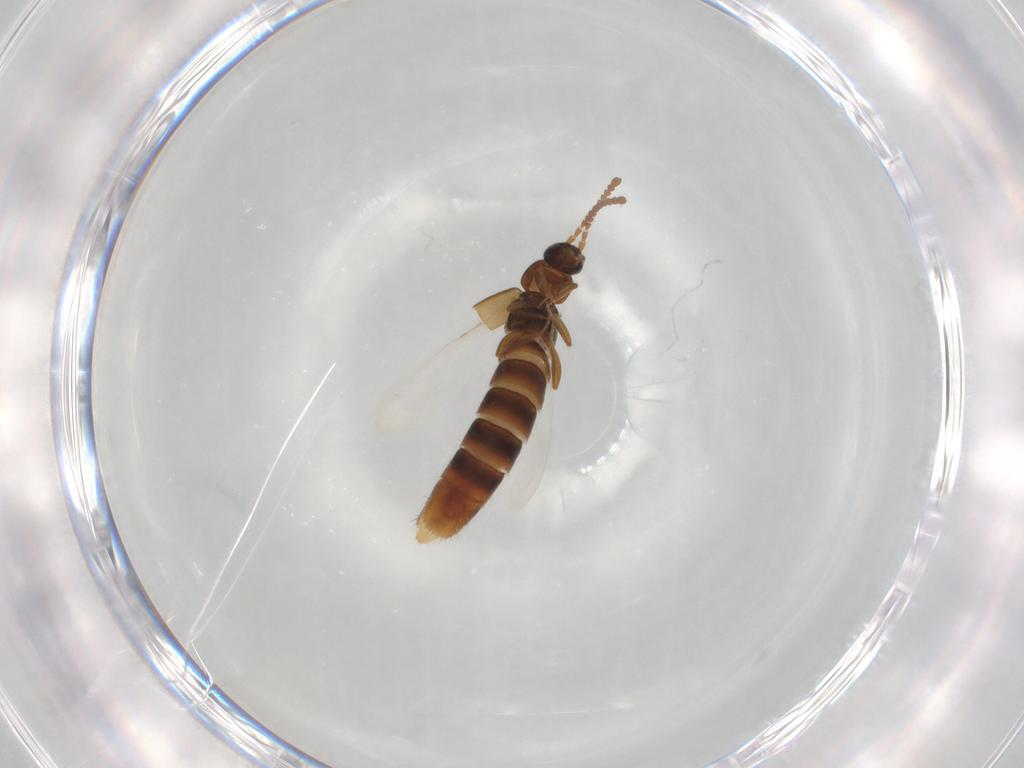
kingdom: Animalia
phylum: Arthropoda
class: Insecta
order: Coleoptera
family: Staphylinidae
